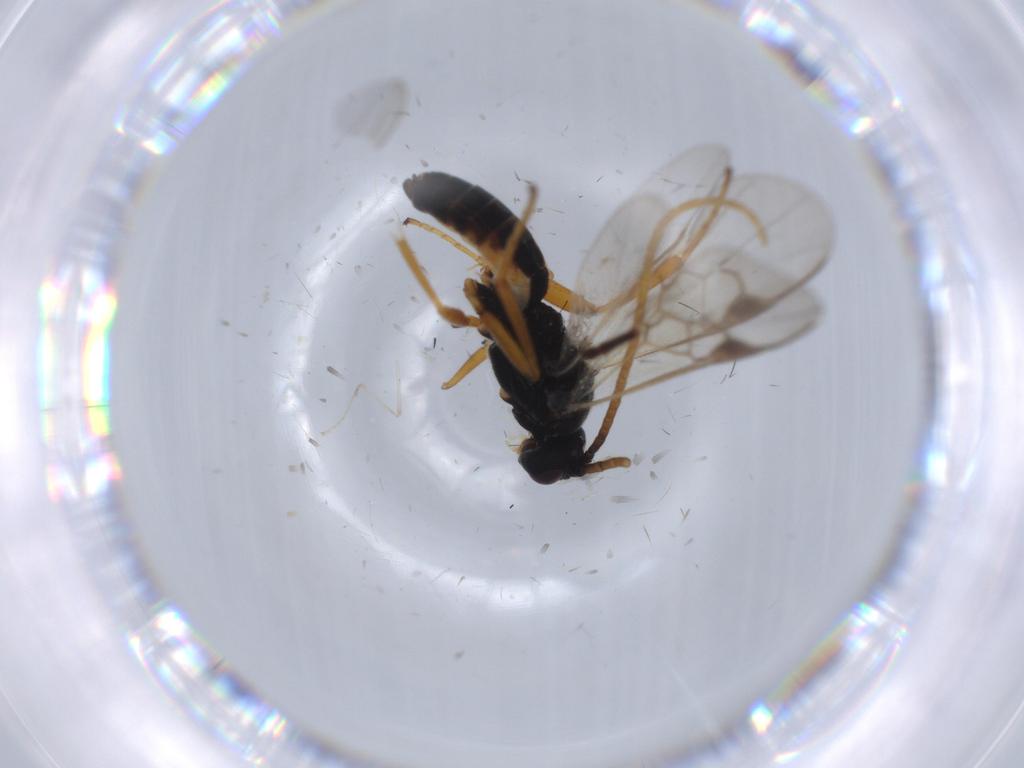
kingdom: Animalia
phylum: Arthropoda
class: Insecta
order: Hymenoptera
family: Braconidae
